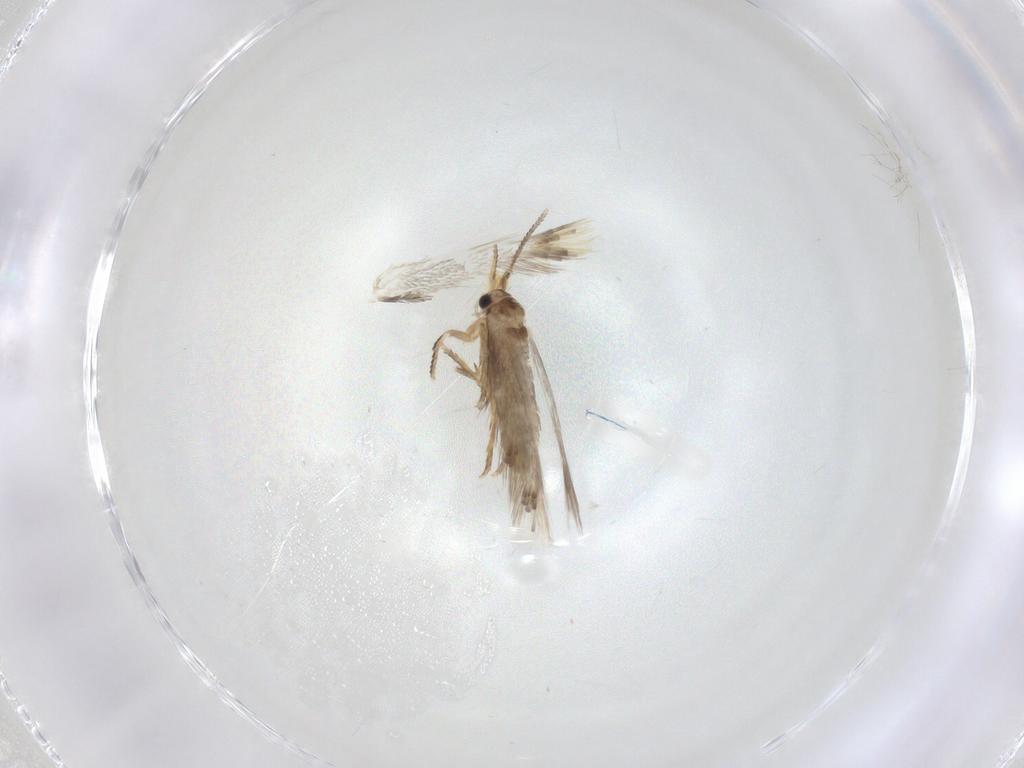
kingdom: Animalia
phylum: Arthropoda
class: Insecta
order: Lepidoptera
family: Nepticulidae
